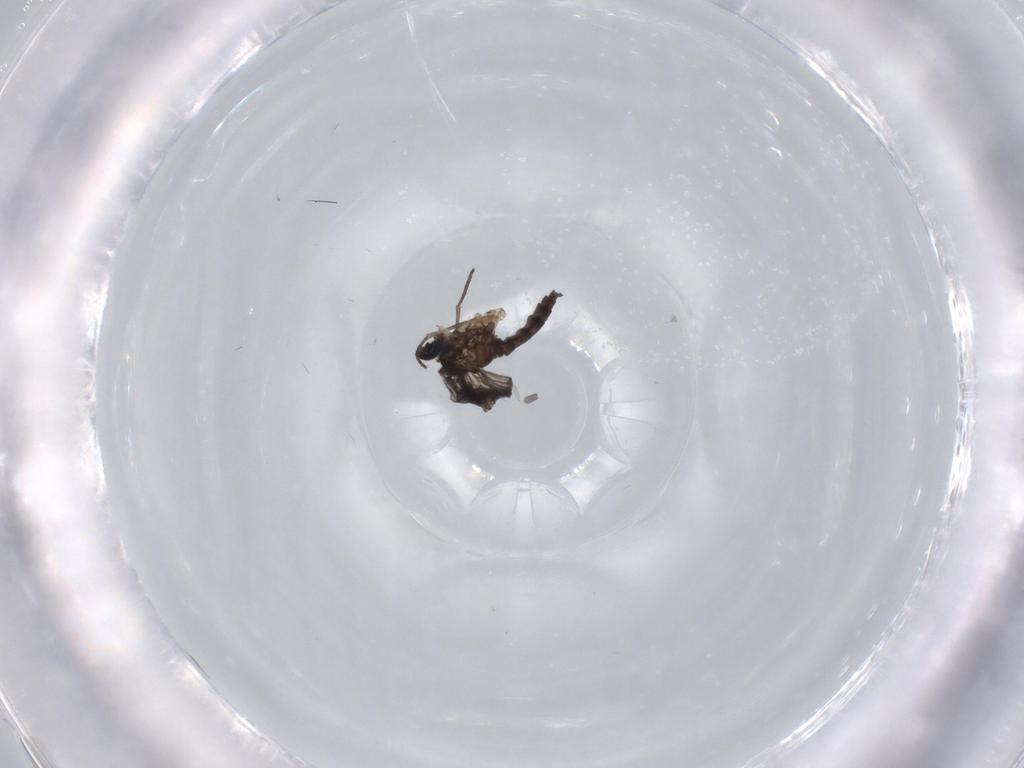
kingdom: Animalia
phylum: Arthropoda
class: Insecta
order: Diptera
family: Sciaridae
